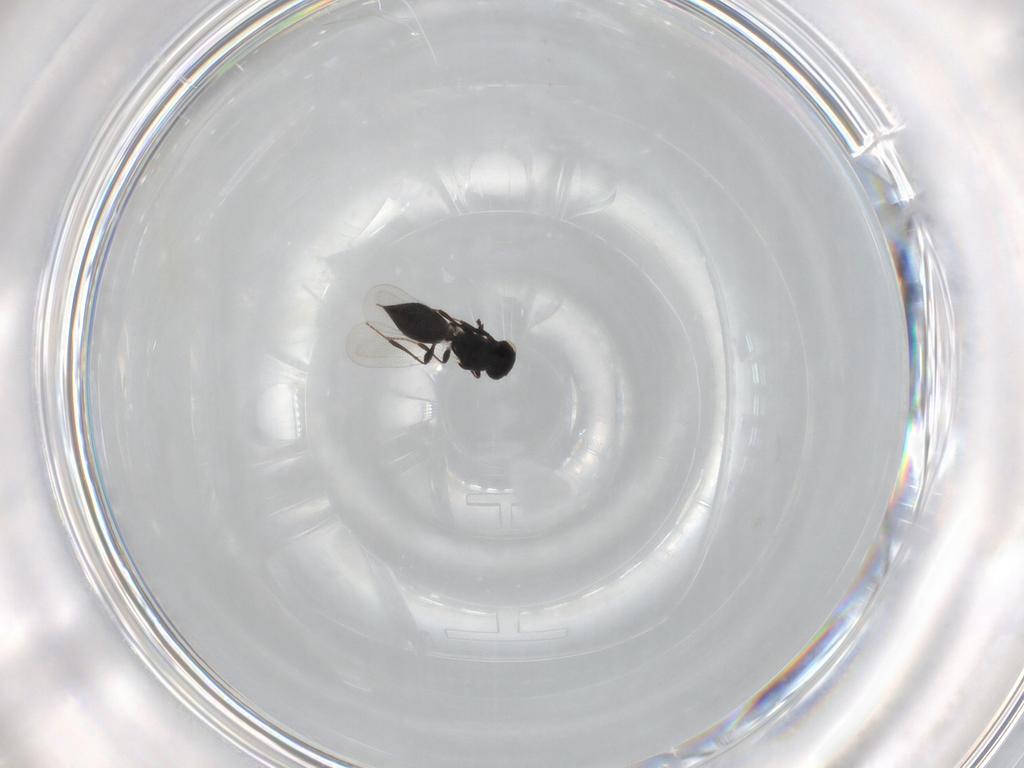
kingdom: Animalia
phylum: Arthropoda
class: Insecta
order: Hymenoptera
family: Platygastridae
